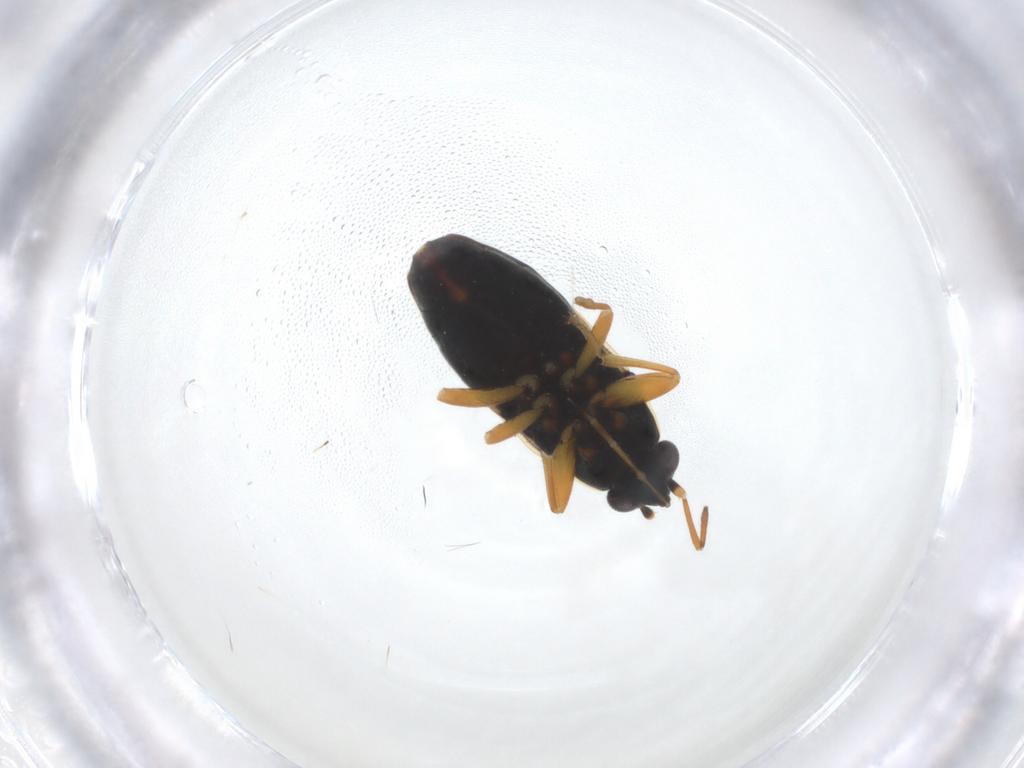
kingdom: Animalia
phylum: Arthropoda
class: Insecta
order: Hemiptera
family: Rhyparochromidae
